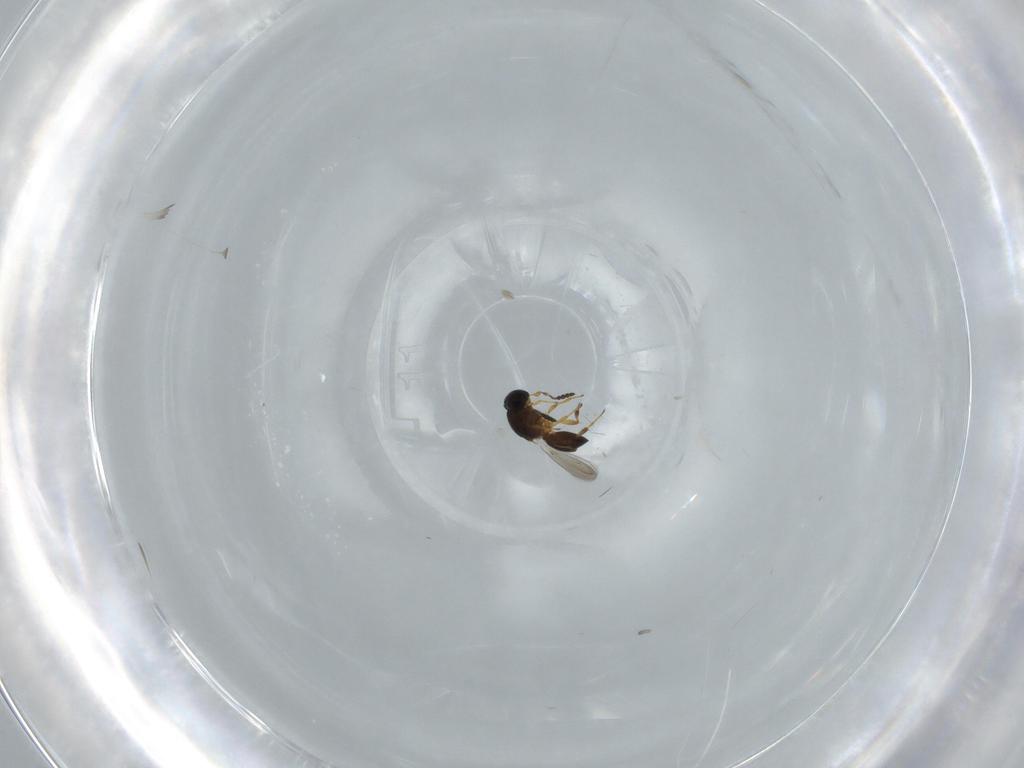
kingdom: Animalia
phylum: Arthropoda
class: Insecta
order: Hymenoptera
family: Platygastridae
